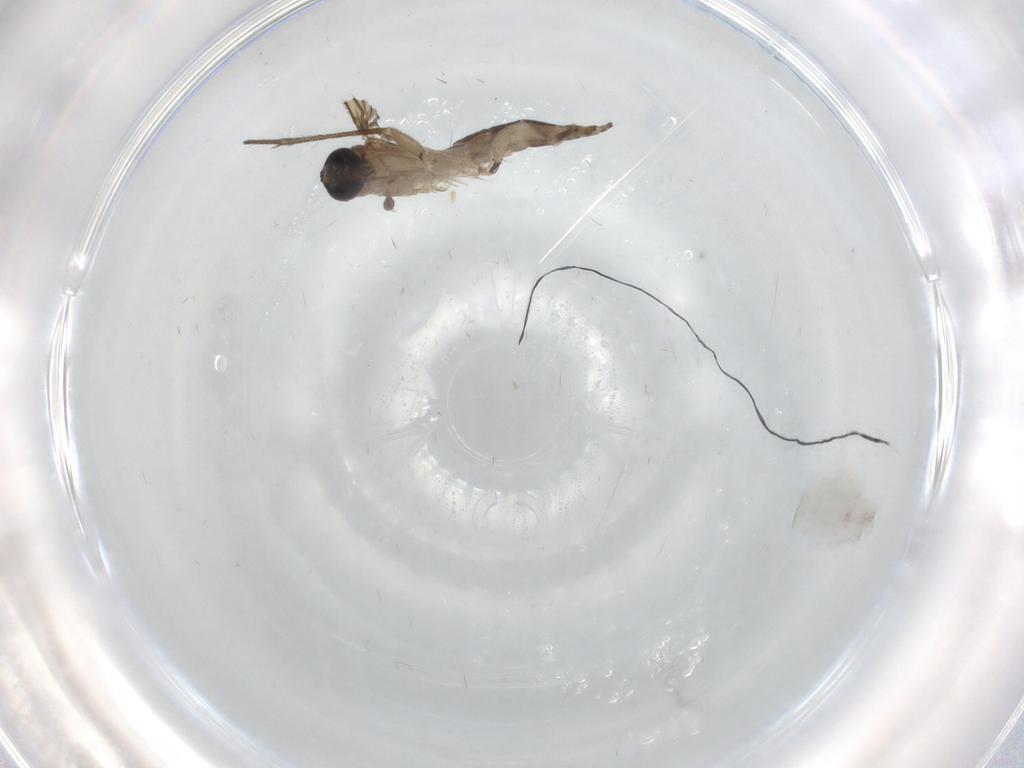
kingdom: Animalia
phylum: Arthropoda
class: Insecta
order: Diptera
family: Sciaridae
